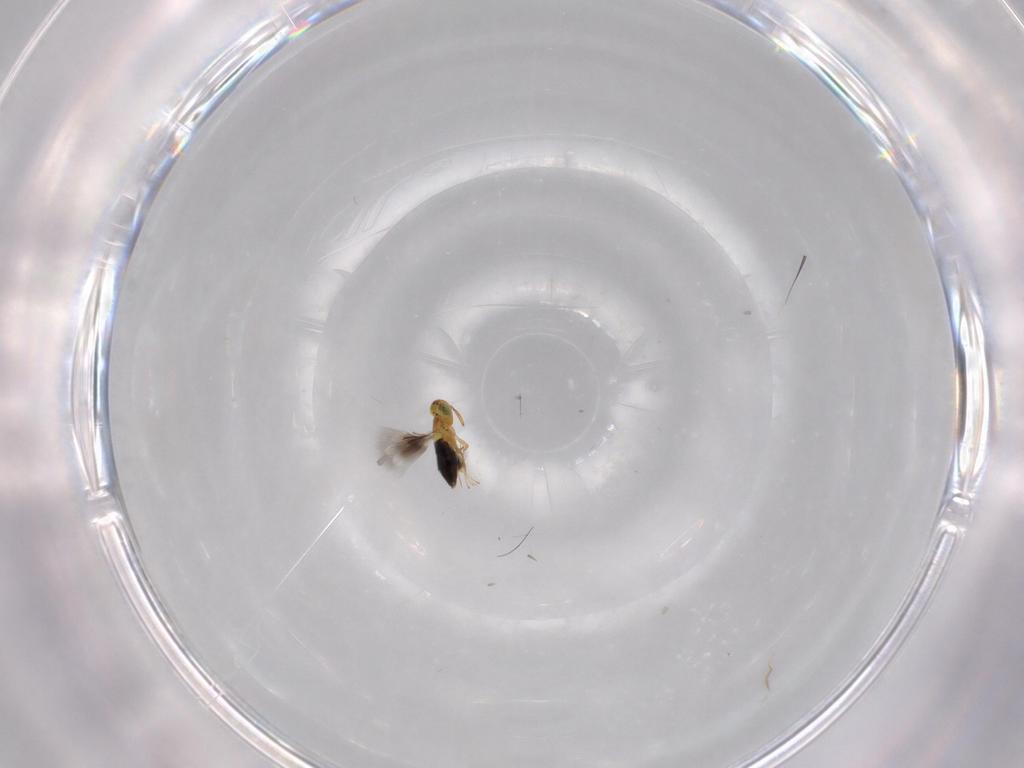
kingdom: Animalia
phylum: Arthropoda
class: Insecta
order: Hymenoptera
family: Signiphoridae
